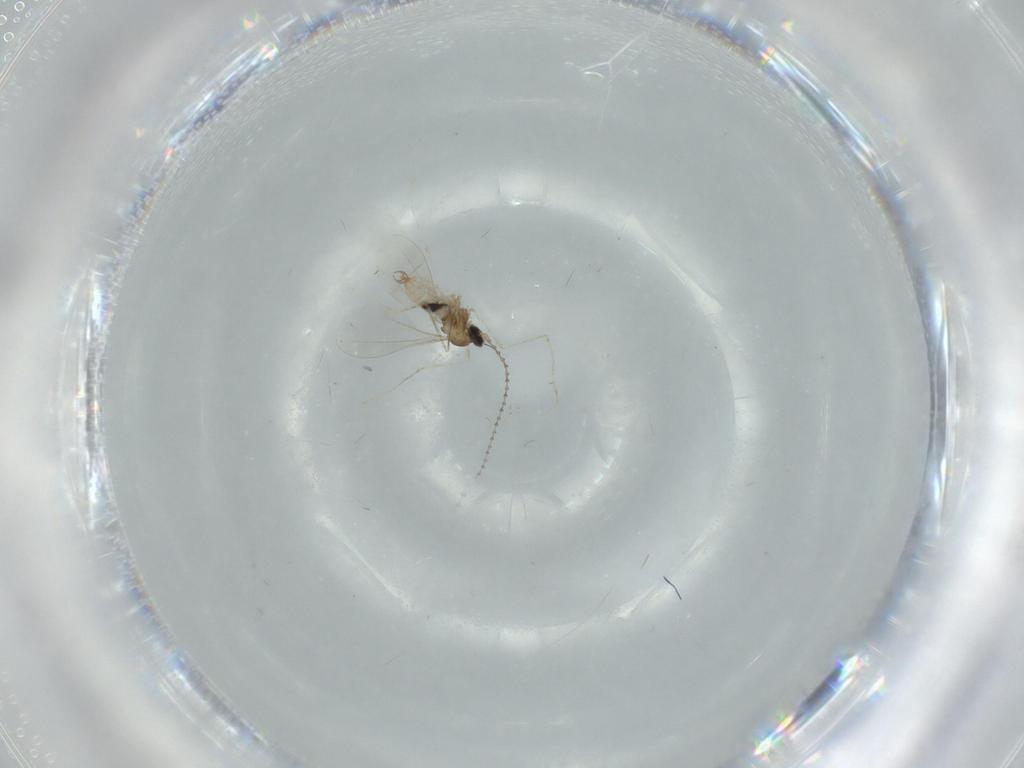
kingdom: Animalia
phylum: Arthropoda
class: Insecta
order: Diptera
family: Cecidomyiidae
